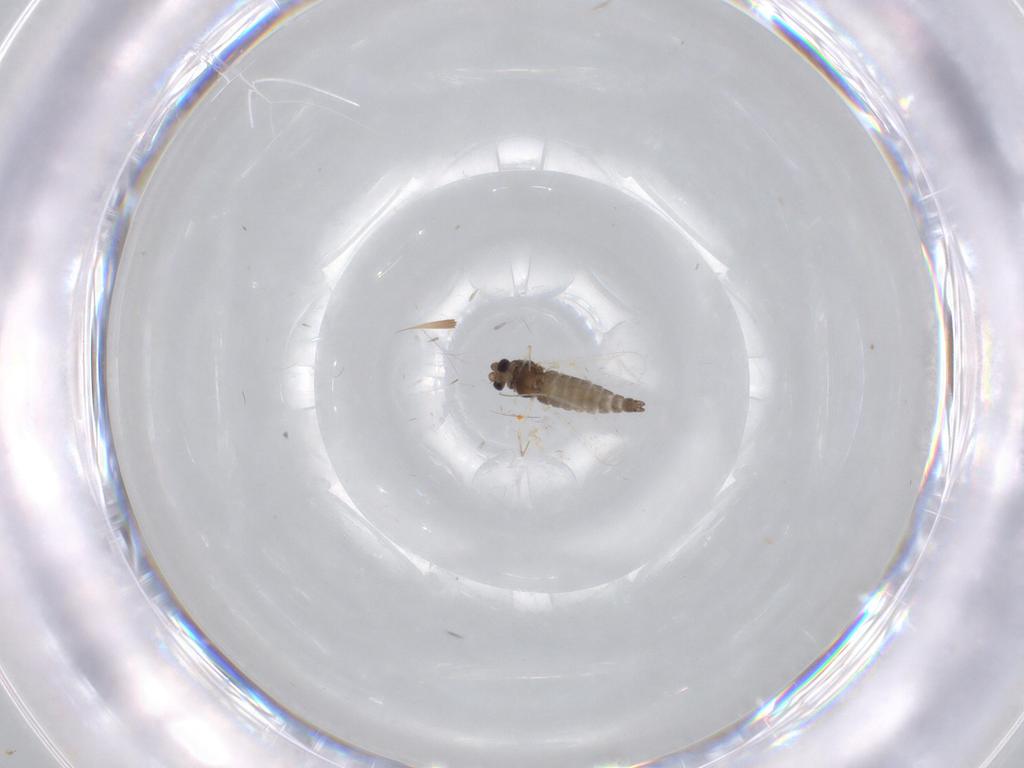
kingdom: Animalia
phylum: Arthropoda
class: Insecta
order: Diptera
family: Chironomidae
